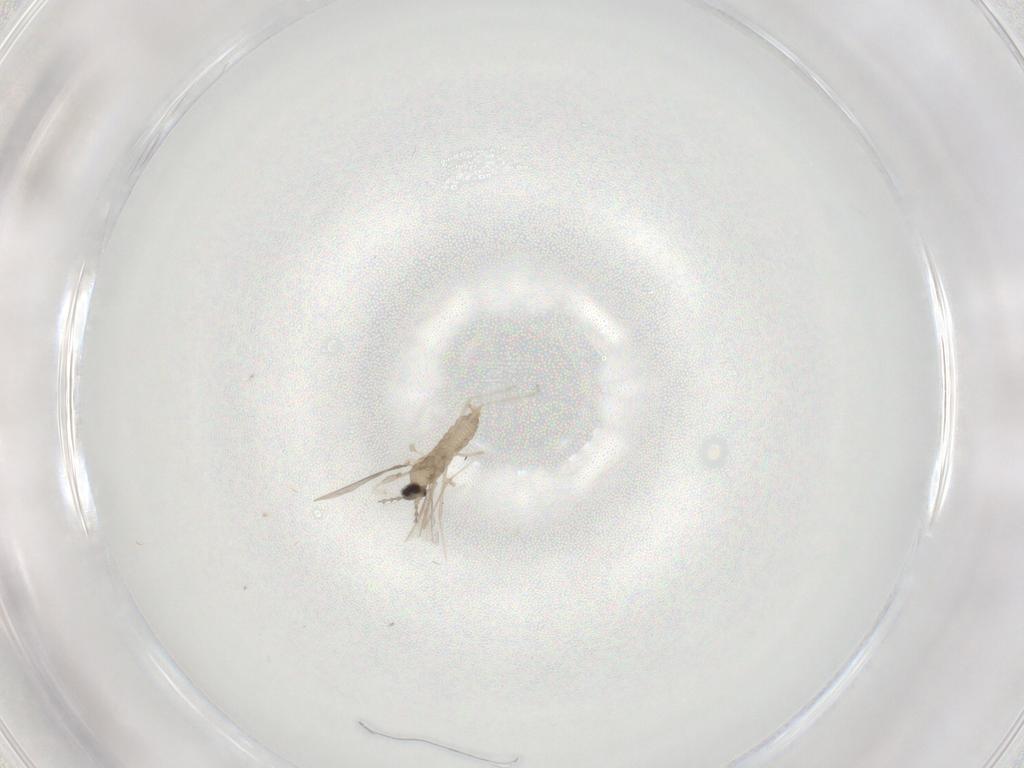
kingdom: Animalia
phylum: Arthropoda
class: Insecta
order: Diptera
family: Cecidomyiidae
